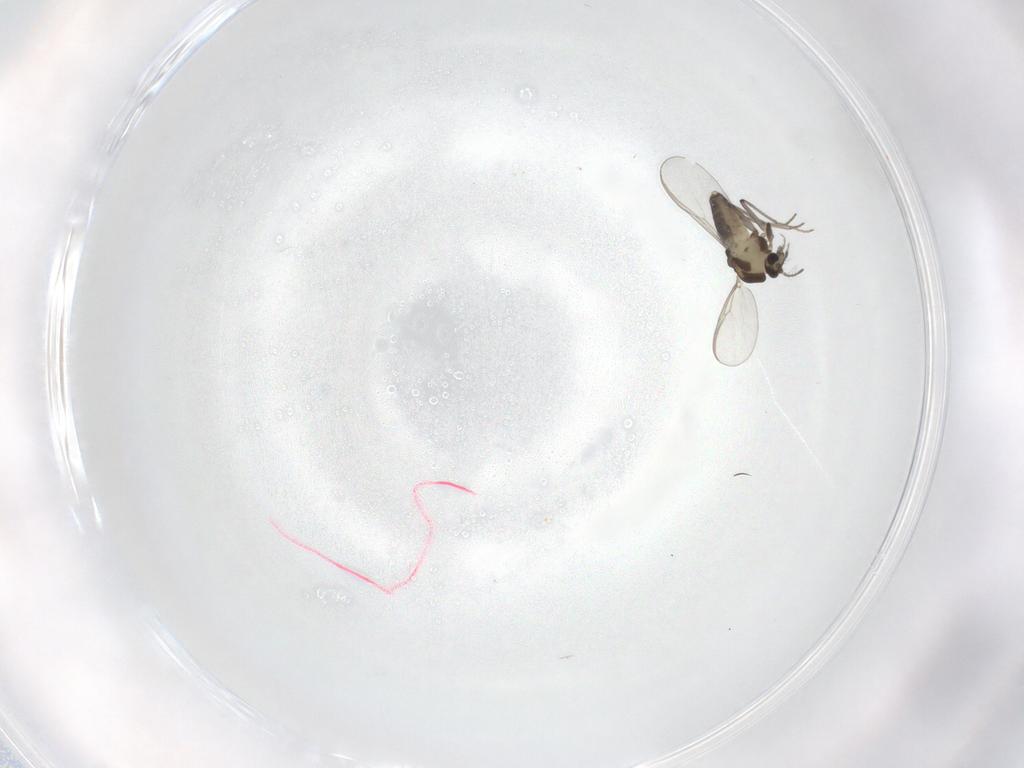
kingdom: Animalia
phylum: Arthropoda
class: Insecta
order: Diptera
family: Chironomidae
